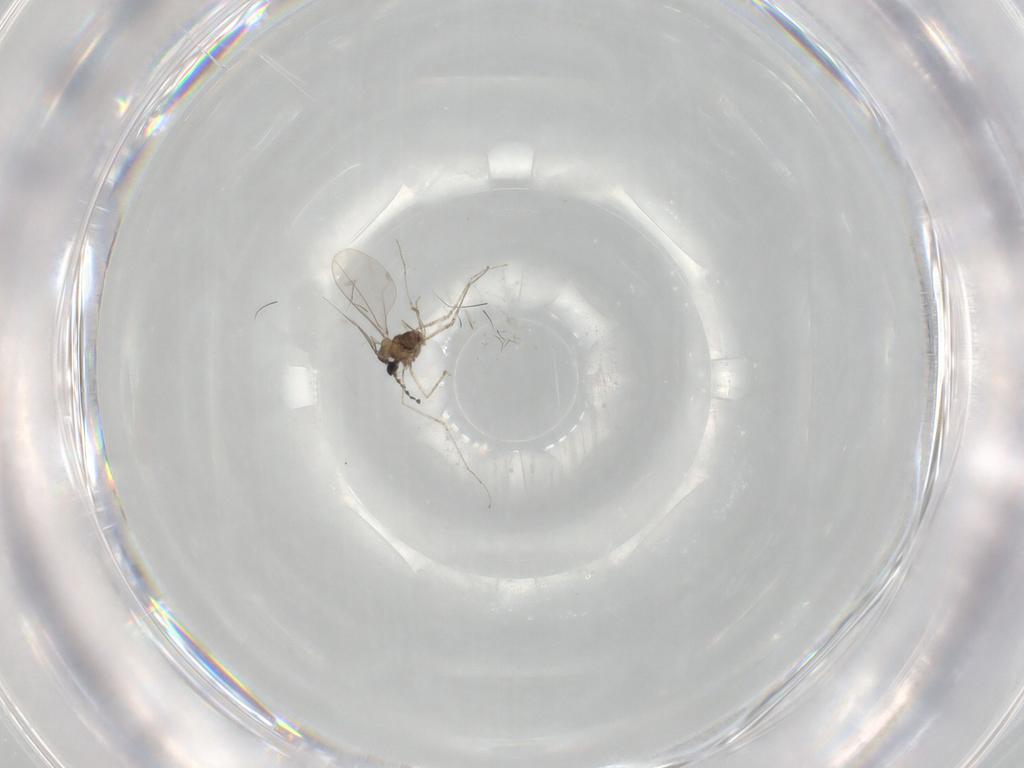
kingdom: Animalia
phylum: Arthropoda
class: Insecta
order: Diptera
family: Cecidomyiidae
